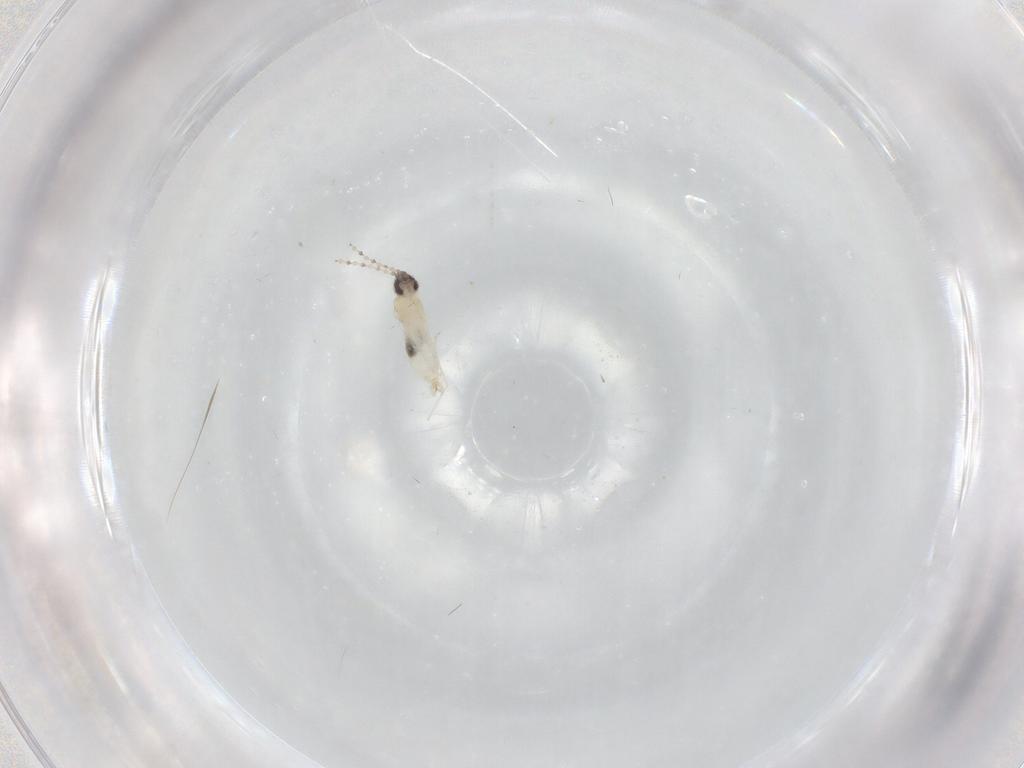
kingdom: Animalia
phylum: Arthropoda
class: Insecta
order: Diptera
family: Cecidomyiidae
